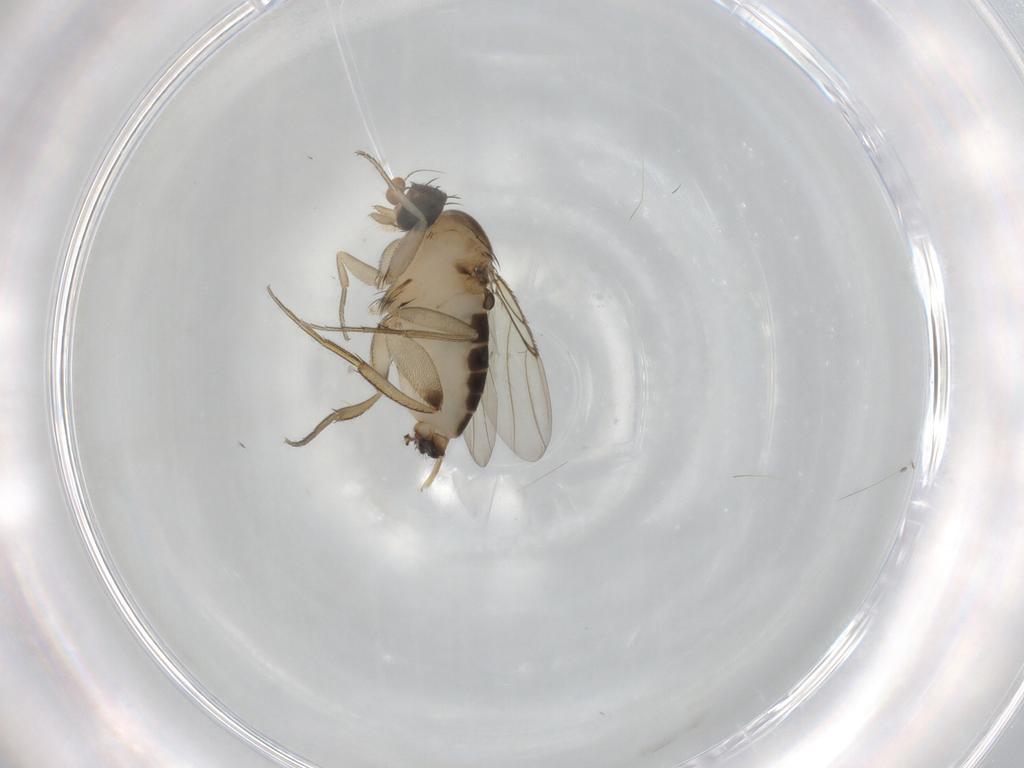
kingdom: Animalia
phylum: Arthropoda
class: Insecta
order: Diptera
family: Phoridae
